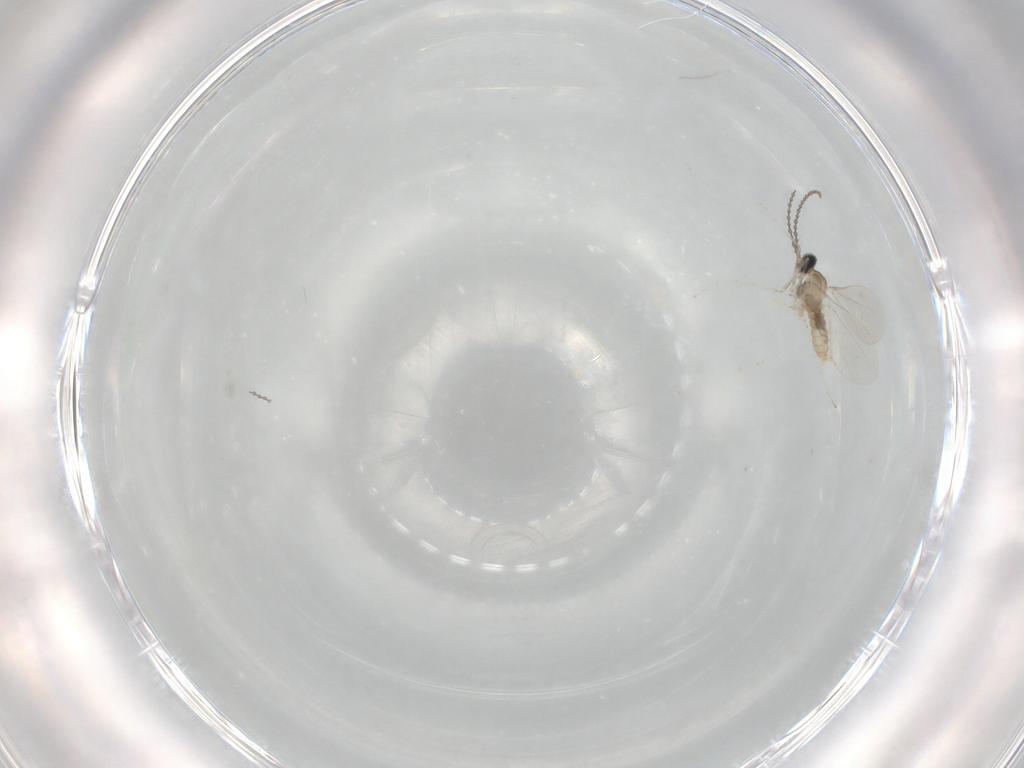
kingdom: Animalia
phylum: Arthropoda
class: Insecta
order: Diptera
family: Cecidomyiidae
